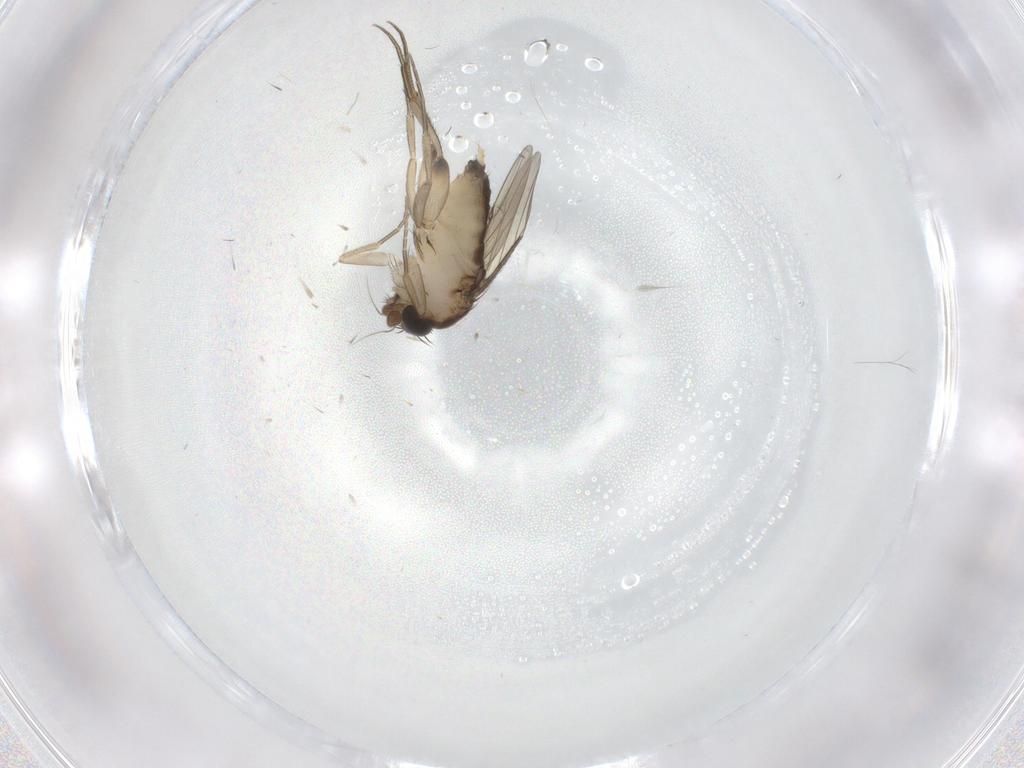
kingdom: Animalia
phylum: Arthropoda
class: Insecta
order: Diptera
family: Phoridae
